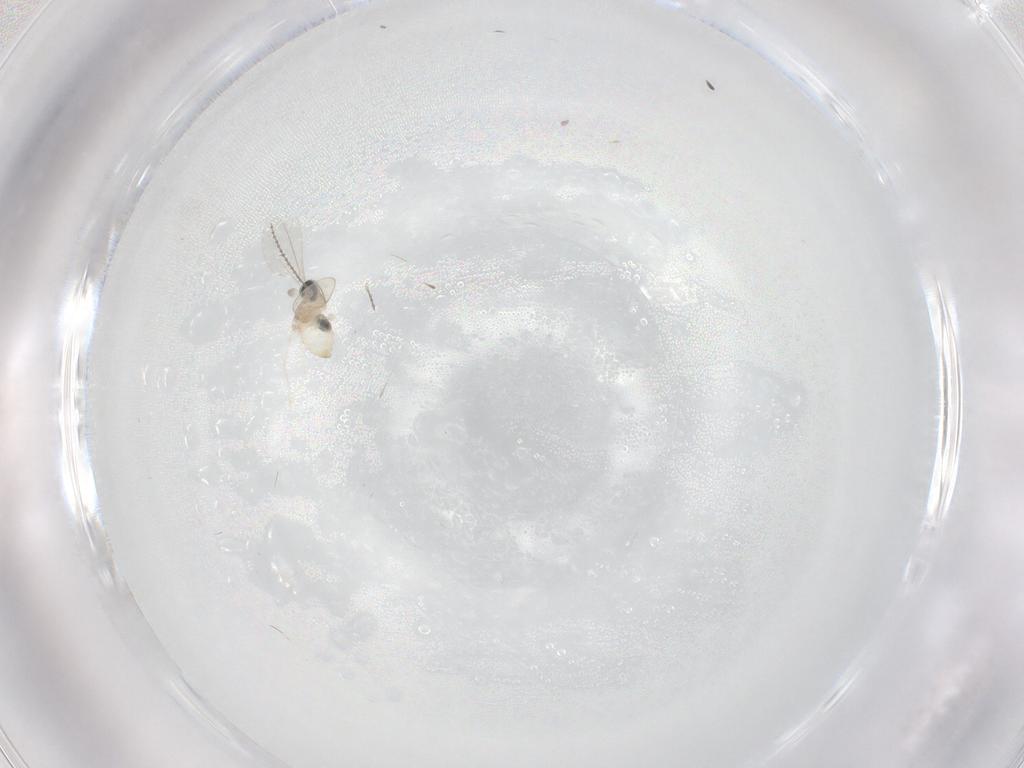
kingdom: Animalia
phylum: Arthropoda
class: Insecta
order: Diptera
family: Cecidomyiidae
